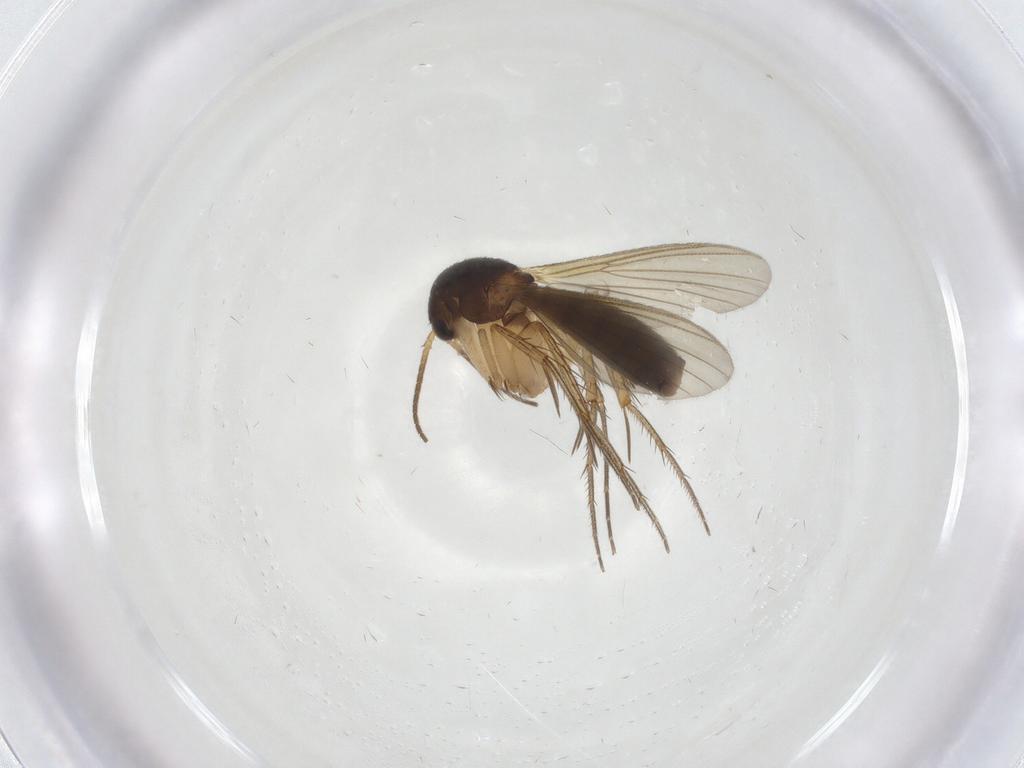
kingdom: Animalia
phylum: Arthropoda
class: Insecta
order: Diptera
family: Mycetophilidae
